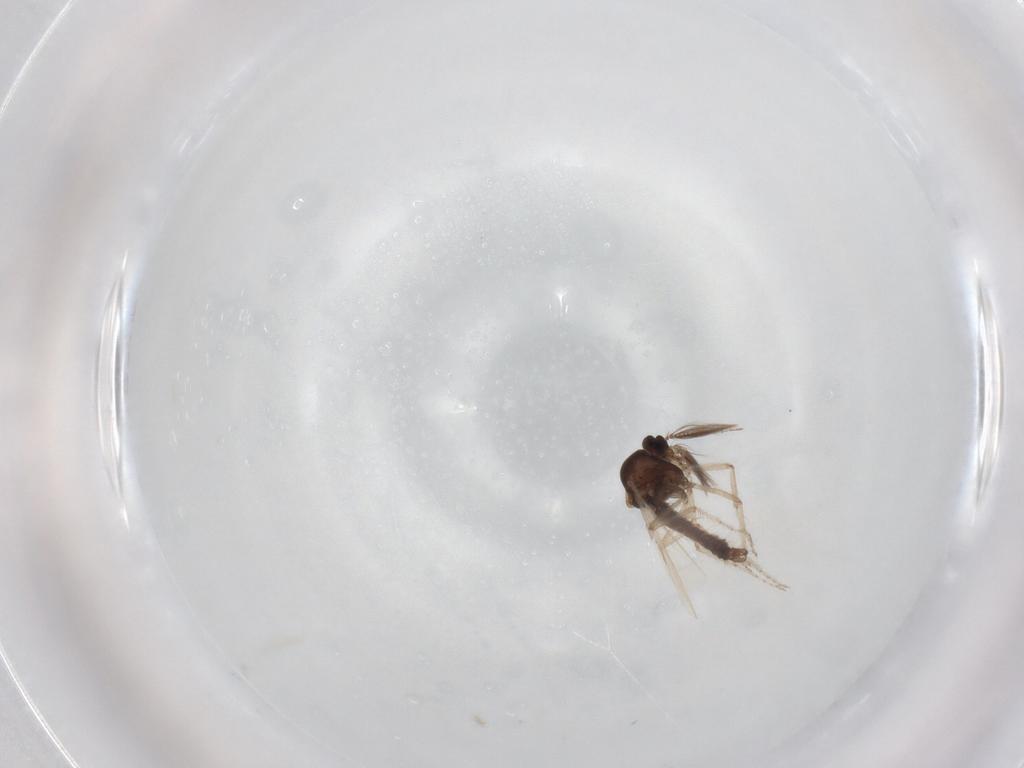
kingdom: Animalia
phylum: Arthropoda
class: Insecta
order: Diptera
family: Ceratopogonidae
